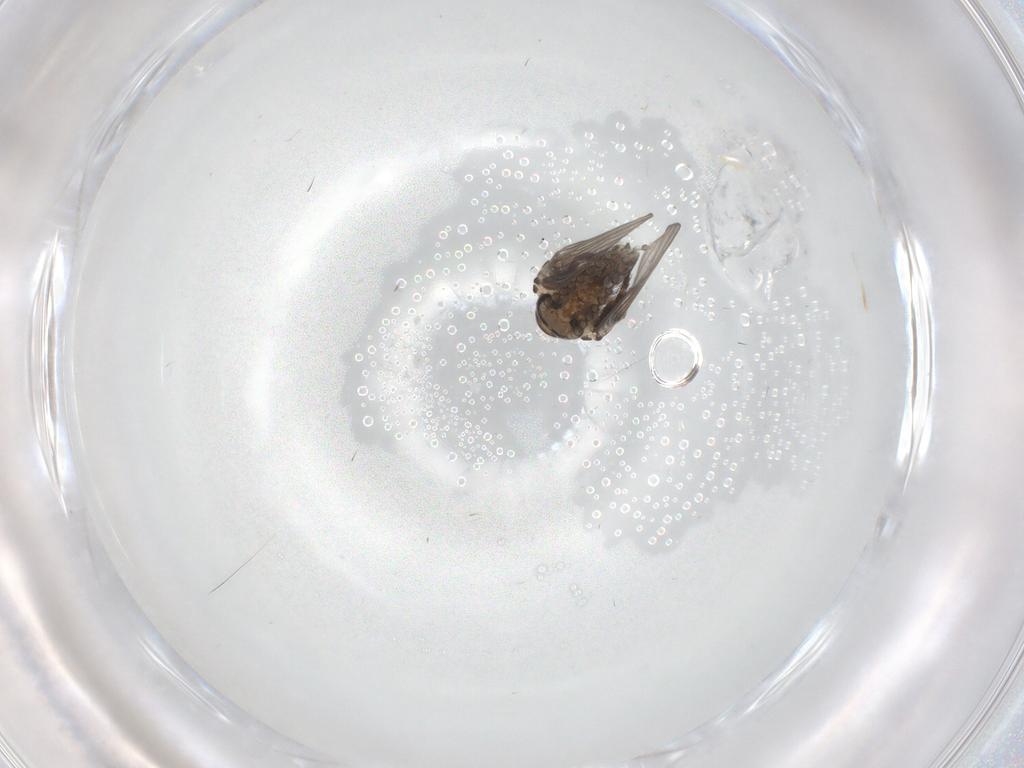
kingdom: Animalia
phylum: Arthropoda
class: Insecta
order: Diptera
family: Psychodidae
